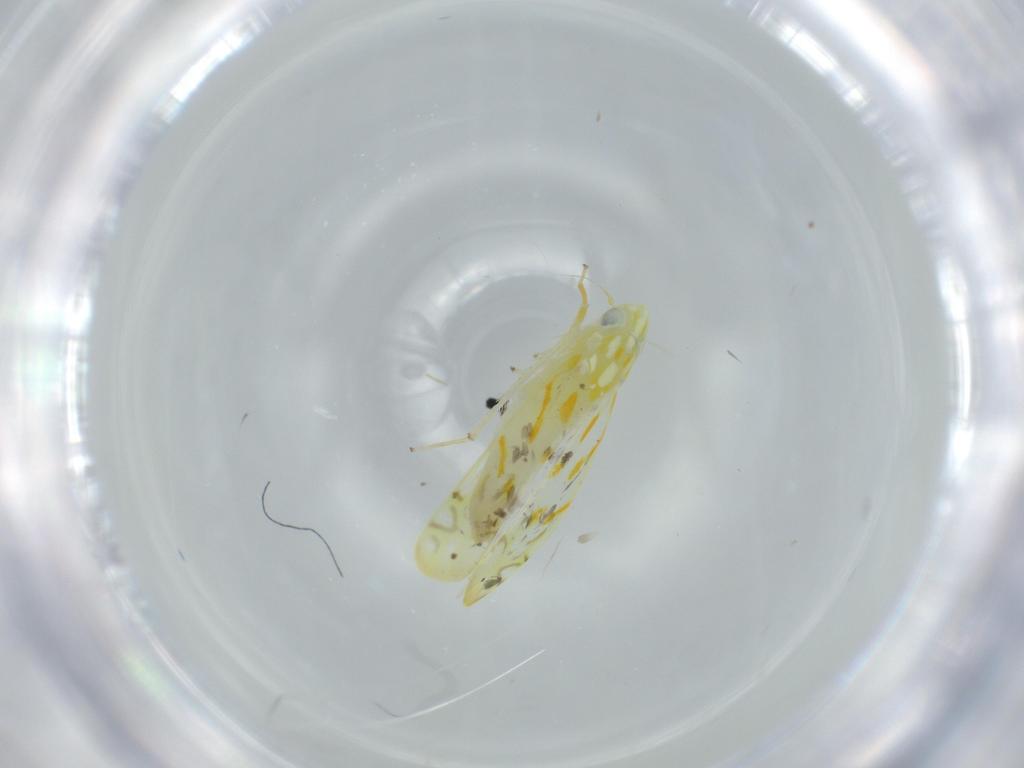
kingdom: Animalia
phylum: Arthropoda
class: Insecta
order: Hemiptera
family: Cicadellidae
